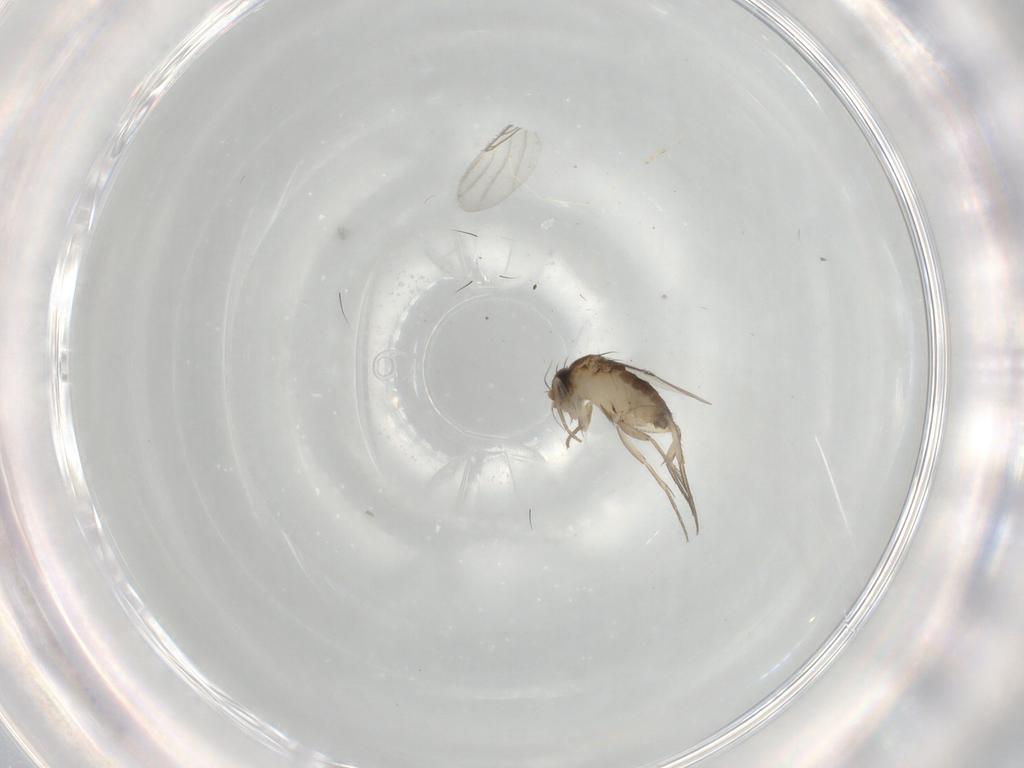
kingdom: Animalia
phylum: Arthropoda
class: Insecta
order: Diptera
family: Phoridae
